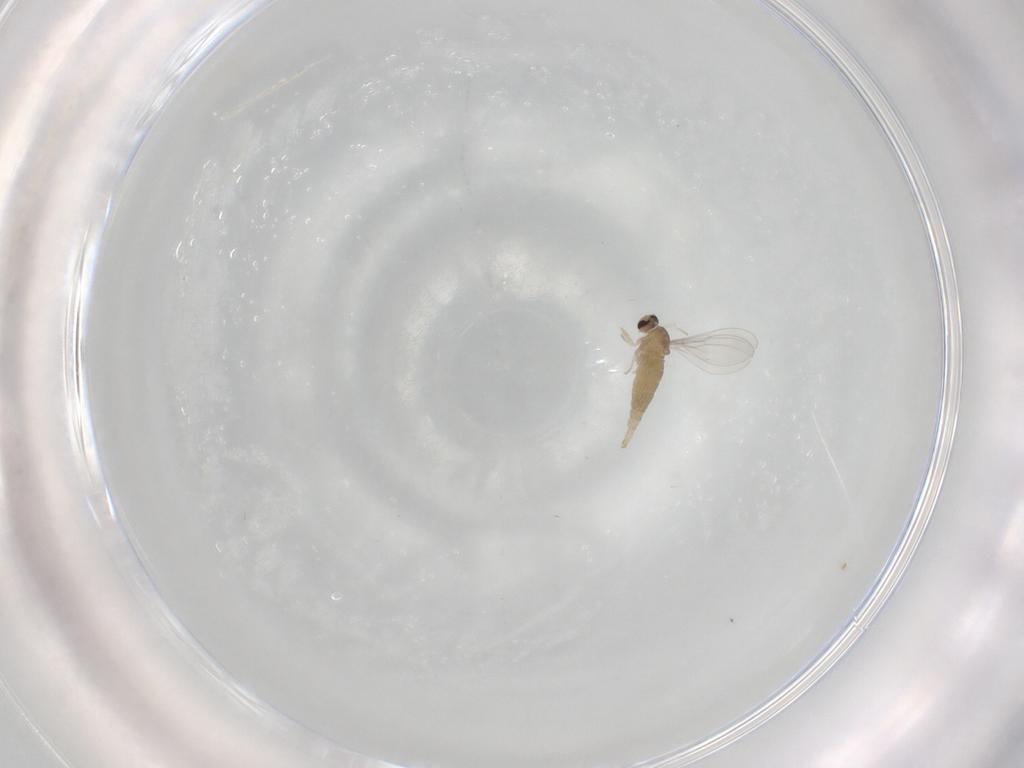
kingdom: Animalia
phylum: Arthropoda
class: Insecta
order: Diptera
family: Cecidomyiidae
